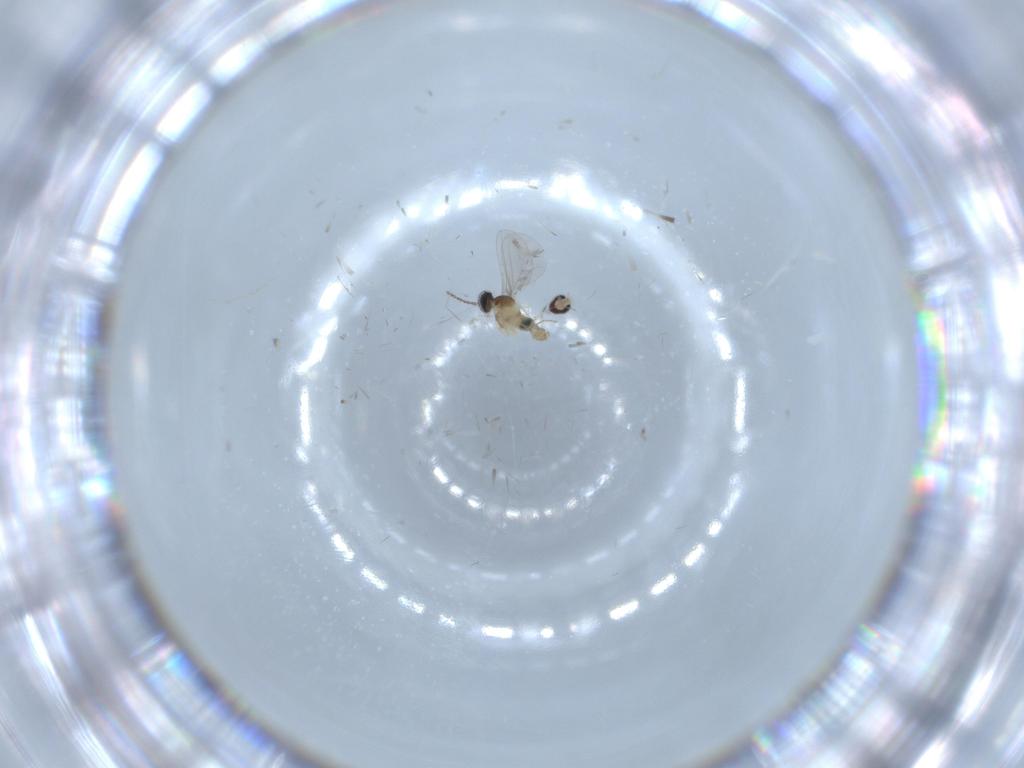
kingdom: Animalia
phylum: Arthropoda
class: Insecta
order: Diptera
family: Cecidomyiidae
